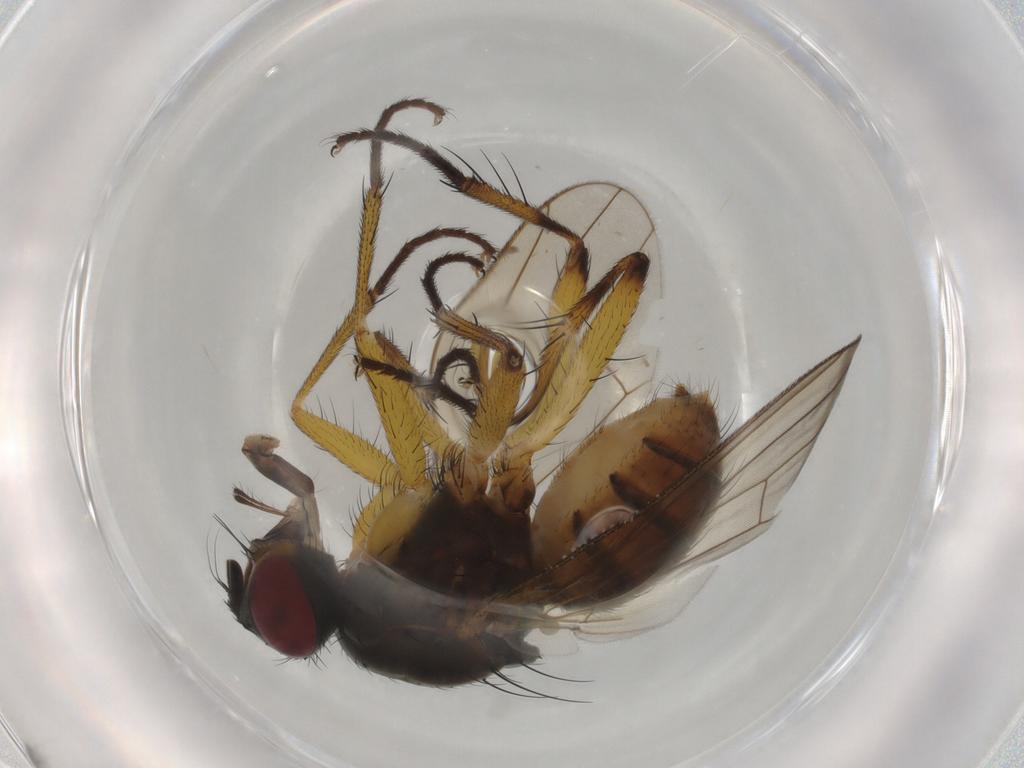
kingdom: Animalia
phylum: Arthropoda
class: Insecta
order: Diptera
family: Muscidae
